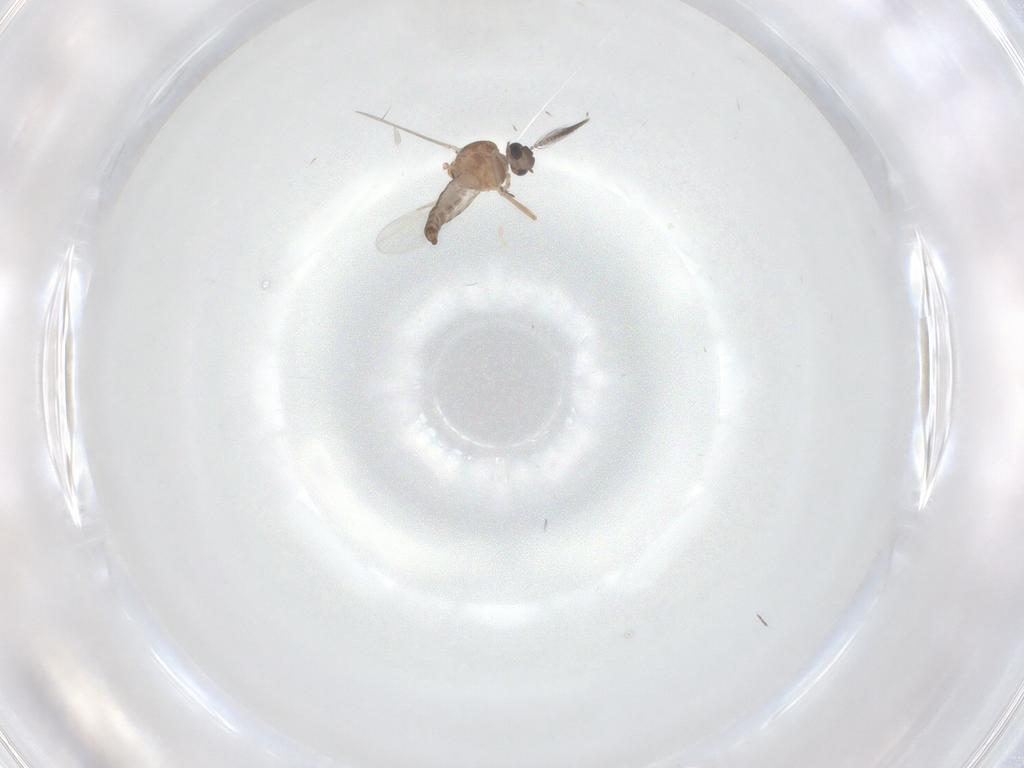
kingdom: Animalia
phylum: Arthropoda
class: Insecta
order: Diptera
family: Ceratopogonidae
